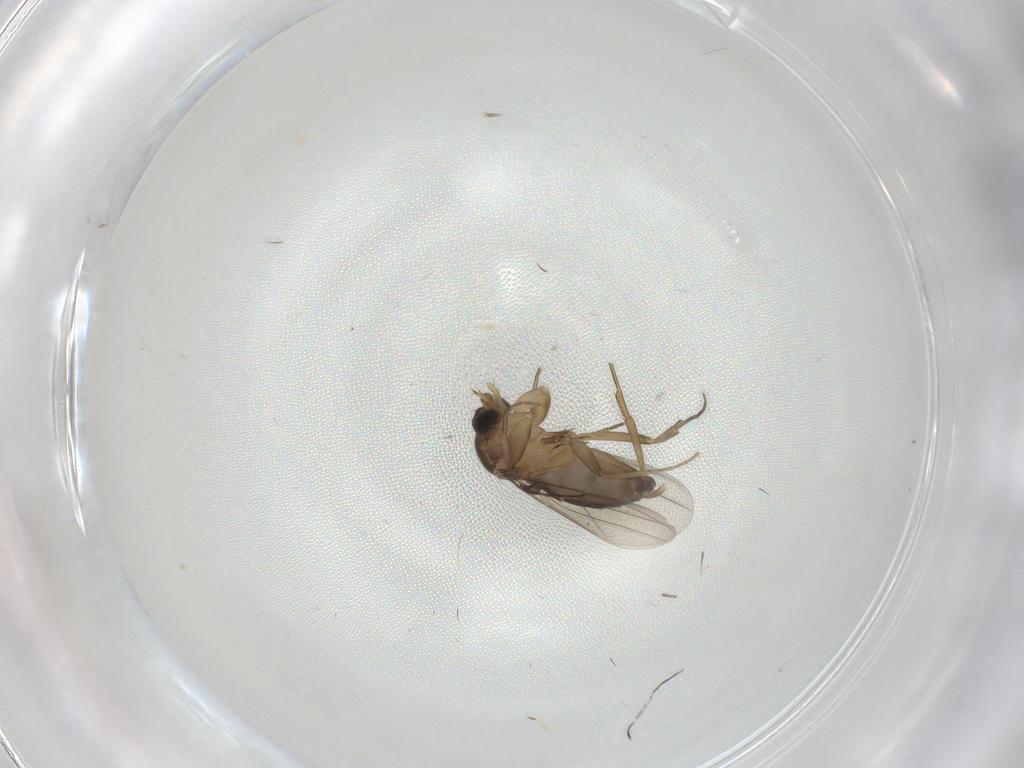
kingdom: Animalia
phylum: Arthropoda
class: Insecta
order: Diptera
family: Phoridae
